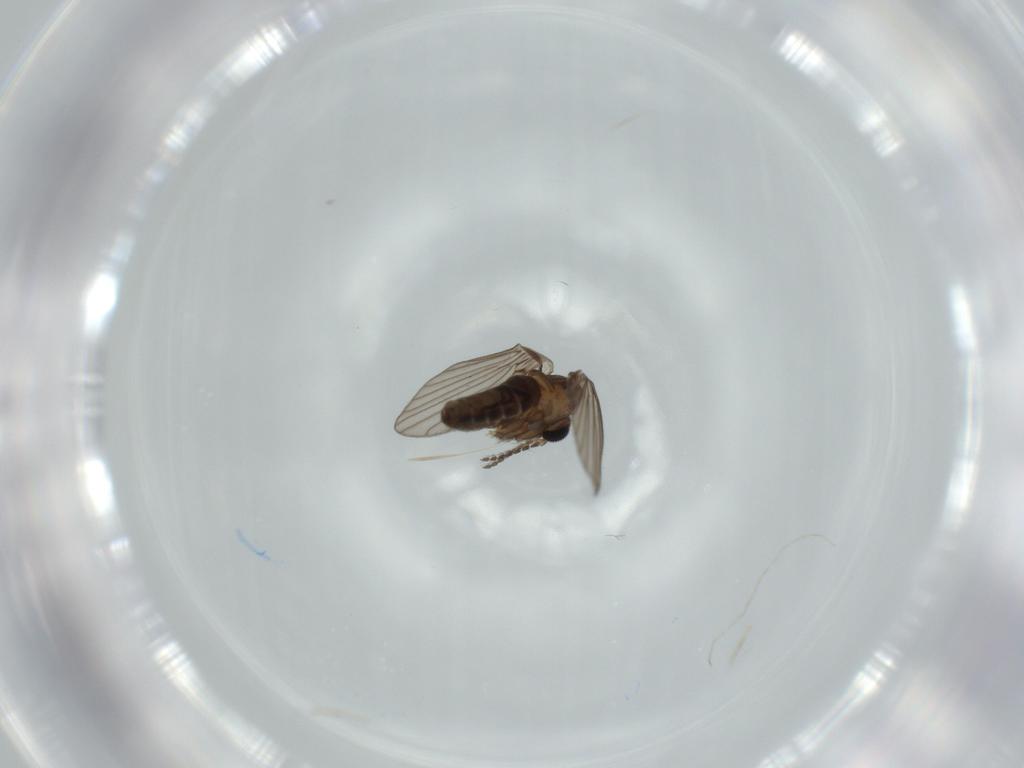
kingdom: Animalia
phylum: Arthropoda
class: Insecta
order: Diptera
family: Psychodidae
